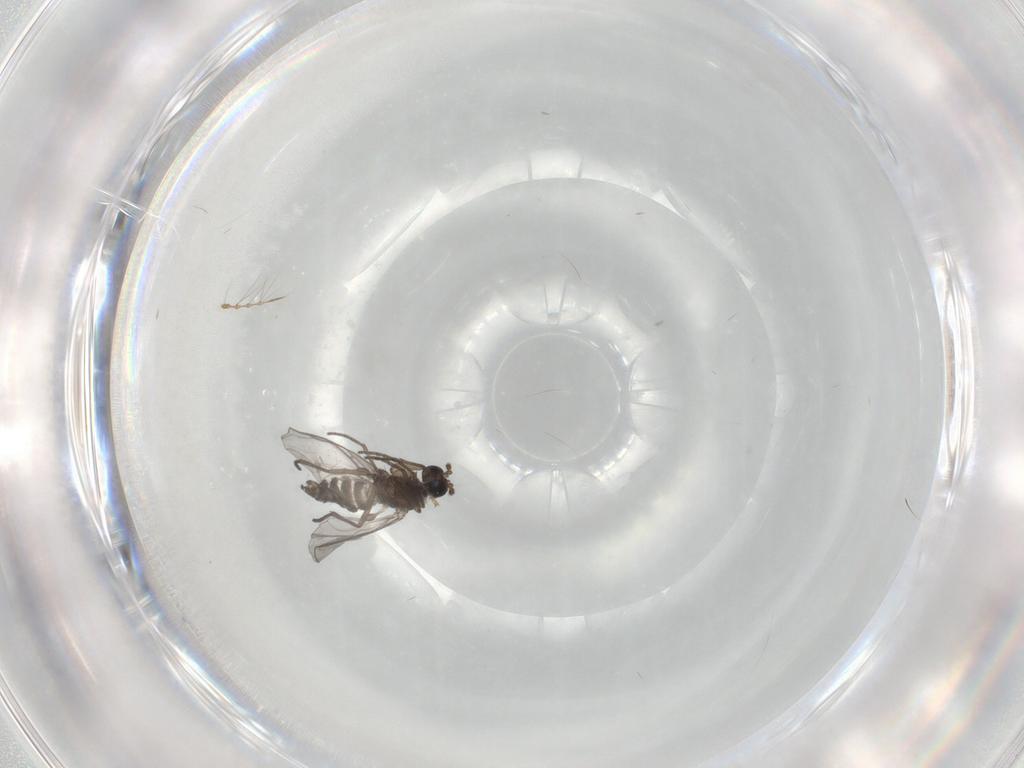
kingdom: Animalia
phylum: Arthropoda
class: Insecta
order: Diptera
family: Cecidomyiidae
